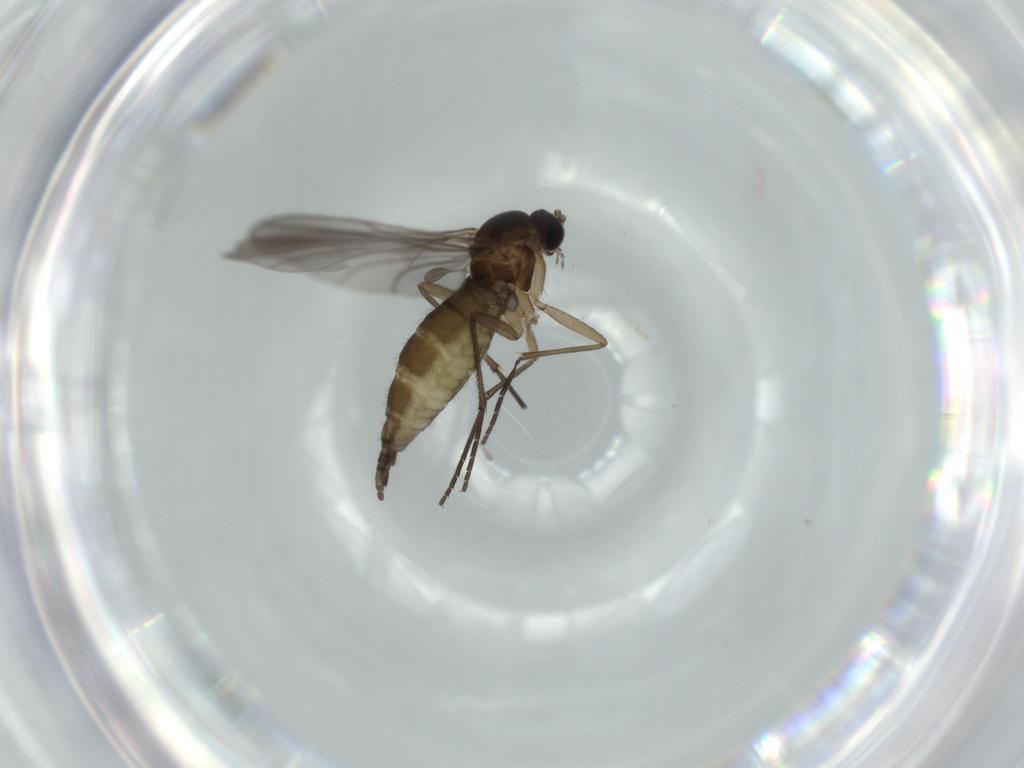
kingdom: Animalia
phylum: Arthropoda
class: Insecta
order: Diptera
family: Sciaridae
